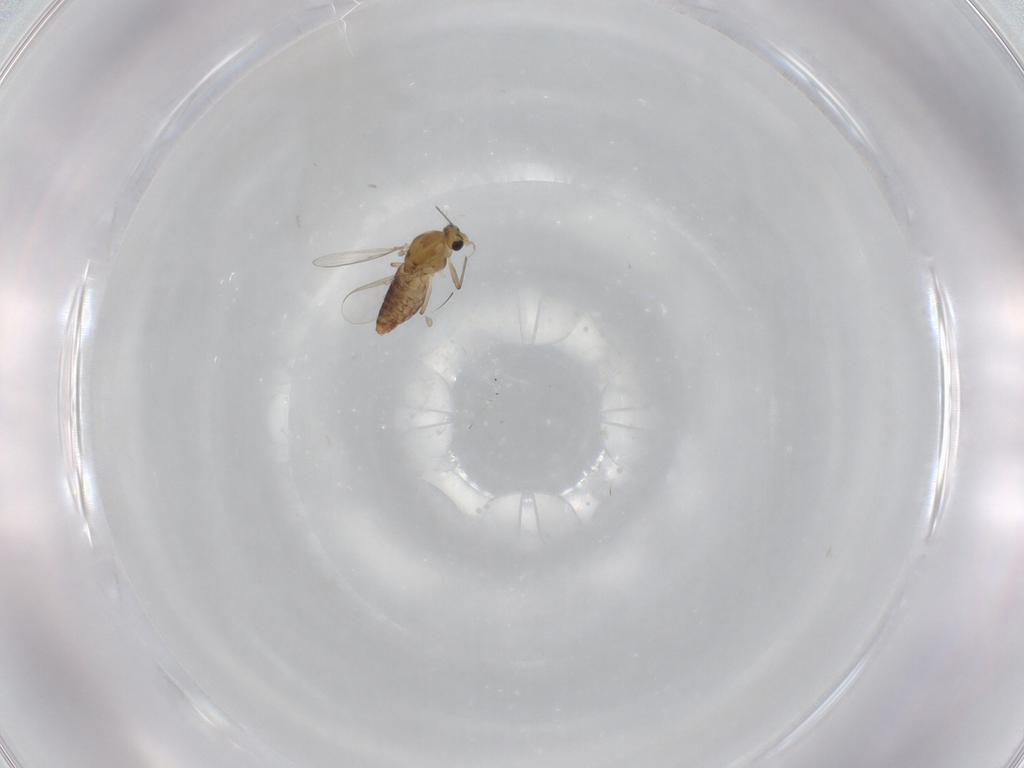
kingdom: Animalia
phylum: Arthropoda
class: Insecta
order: Diptera
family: Chironomidae
